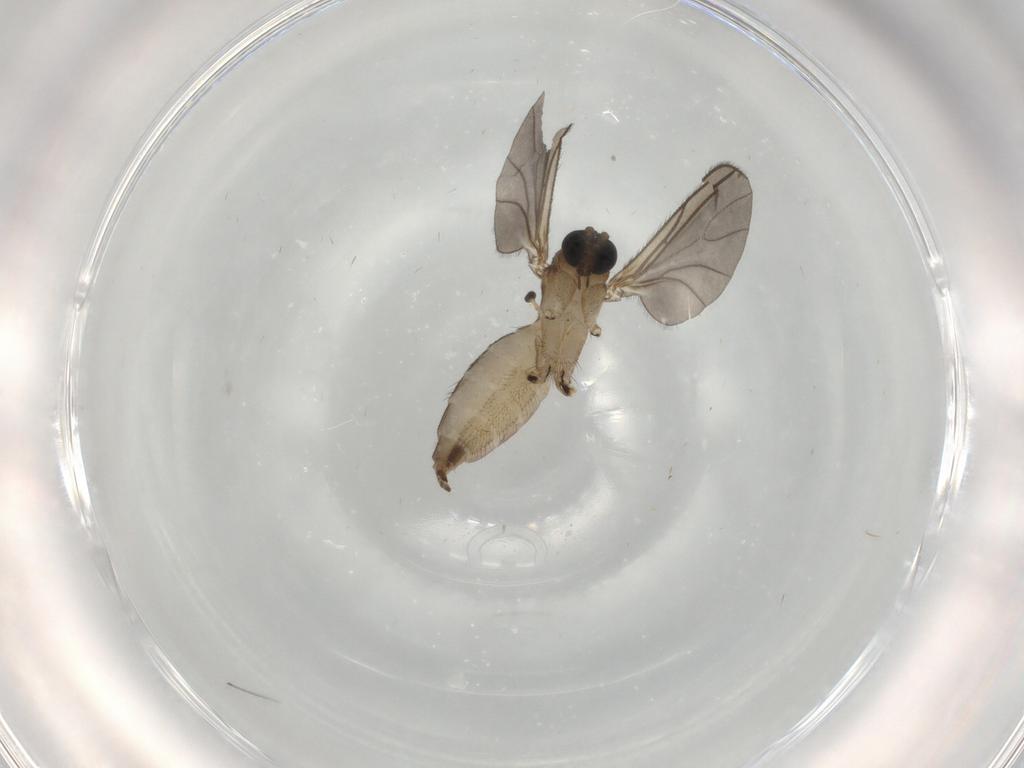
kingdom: Animalia
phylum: Arthropoda
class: Insecta
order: Diptera
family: Sciaridae
